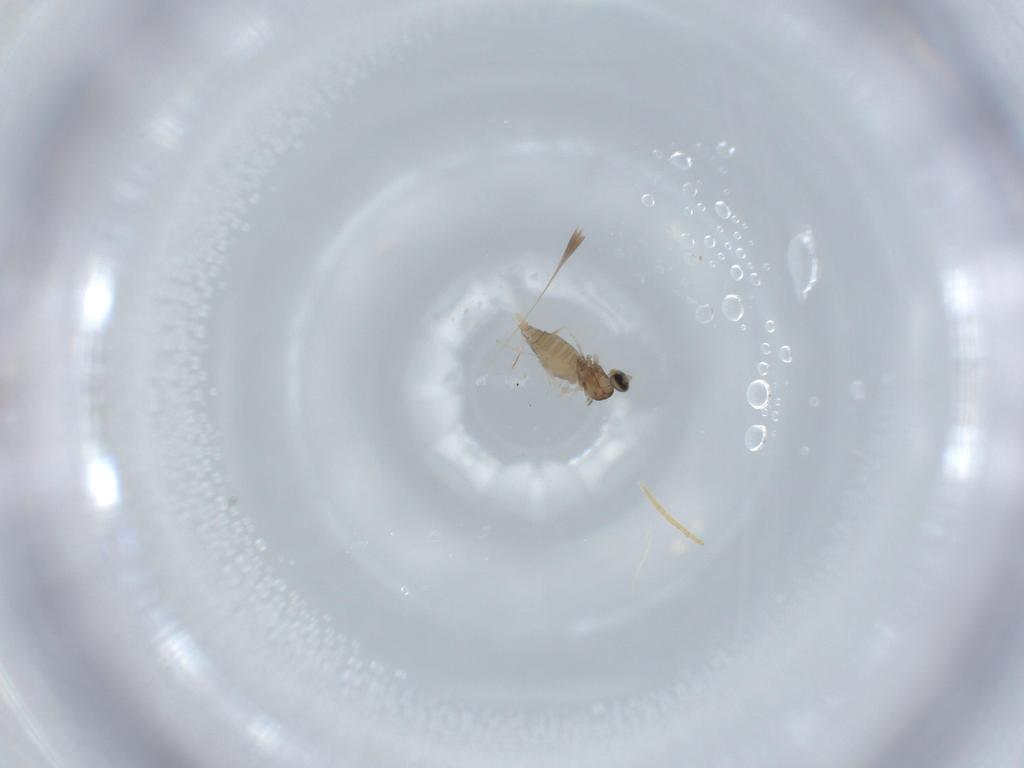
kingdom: Animalia
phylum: Arthropoda
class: Insecta
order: Diptera
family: Cecidomyiidae
